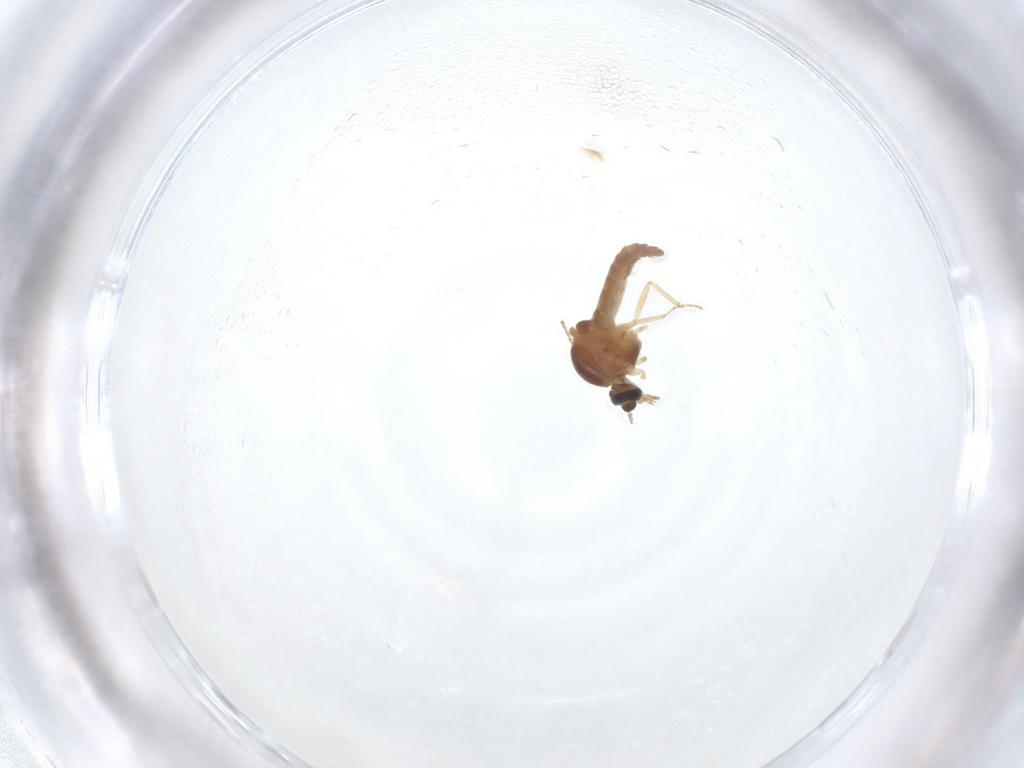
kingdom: Animalia
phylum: Arthropoda
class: Insecta
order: Diptera
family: Ceratopogonidae
